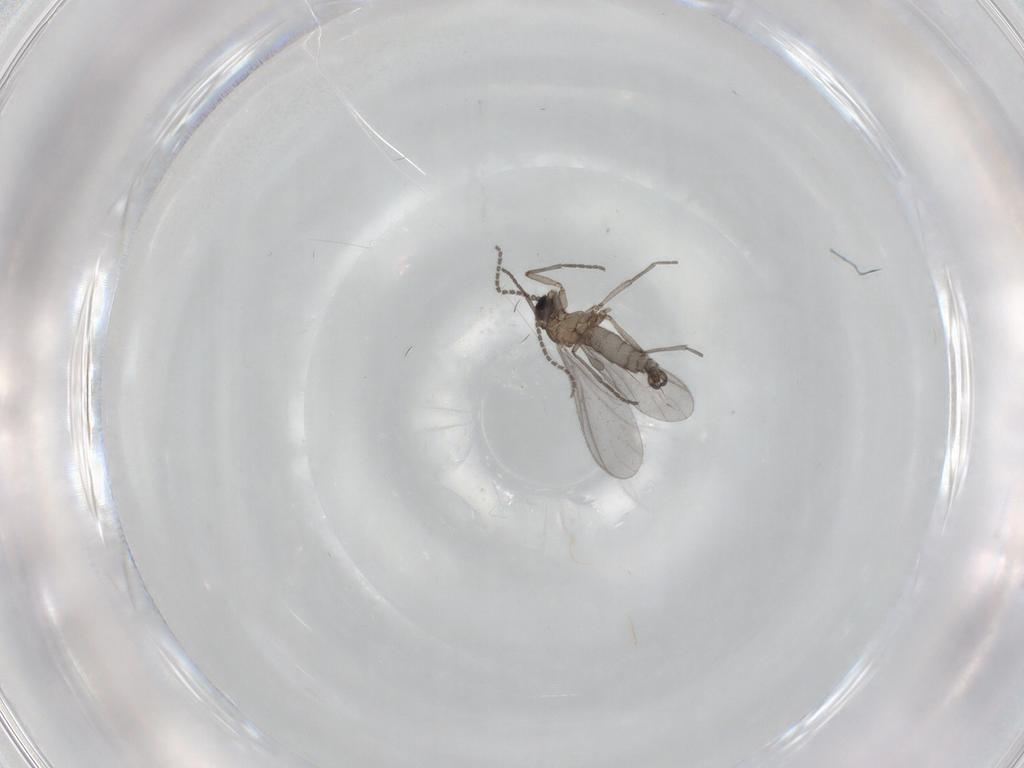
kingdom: Animalia
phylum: Arthropoda
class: Insecta
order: Diptera
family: Sciaridae
